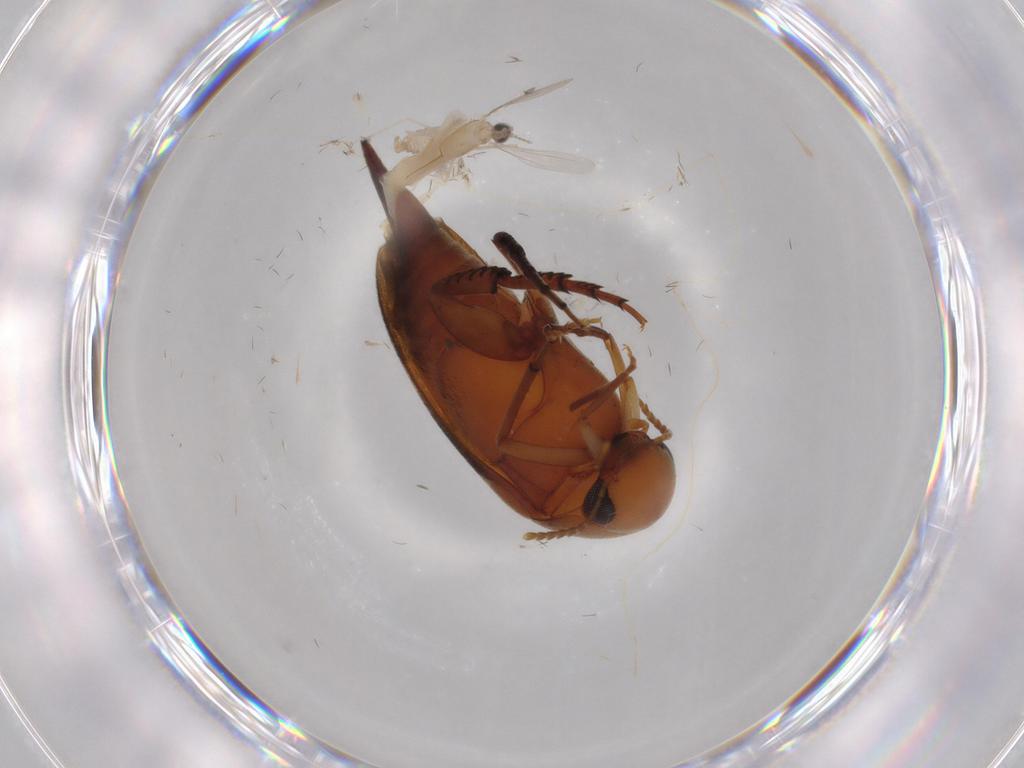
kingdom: Animalia
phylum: Arthropoda
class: Insecta
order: Coleoptera
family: Mordellidae
